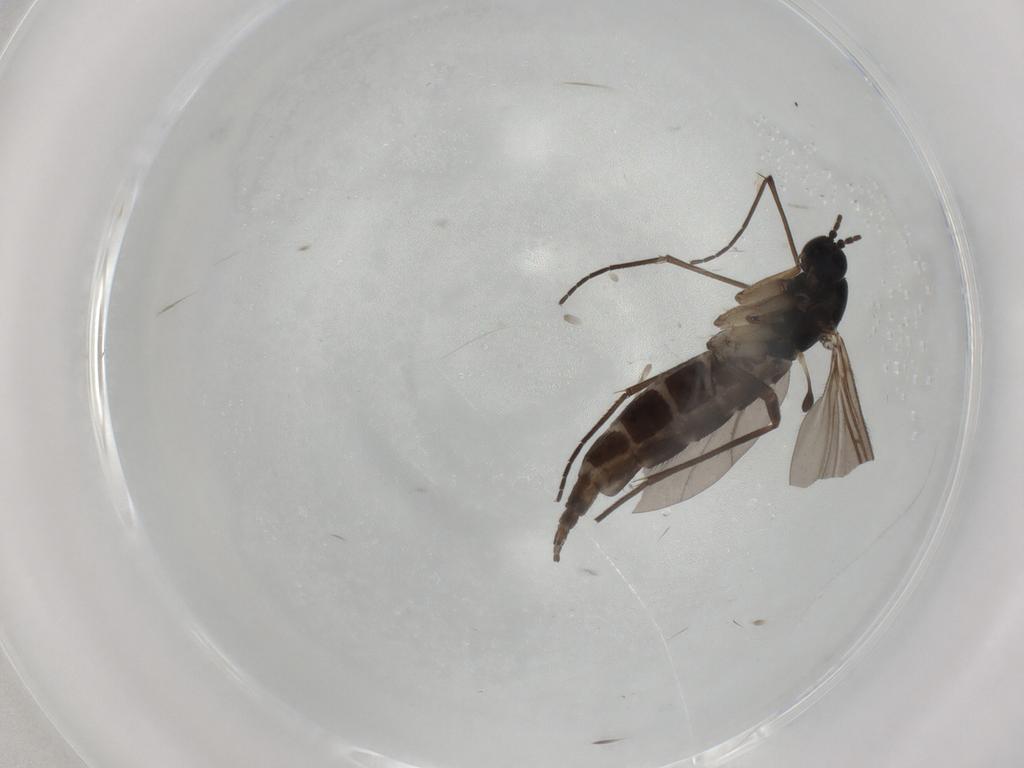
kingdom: Animalia
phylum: Arthropoda
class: Insecta
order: Diptera
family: Sciaridae
